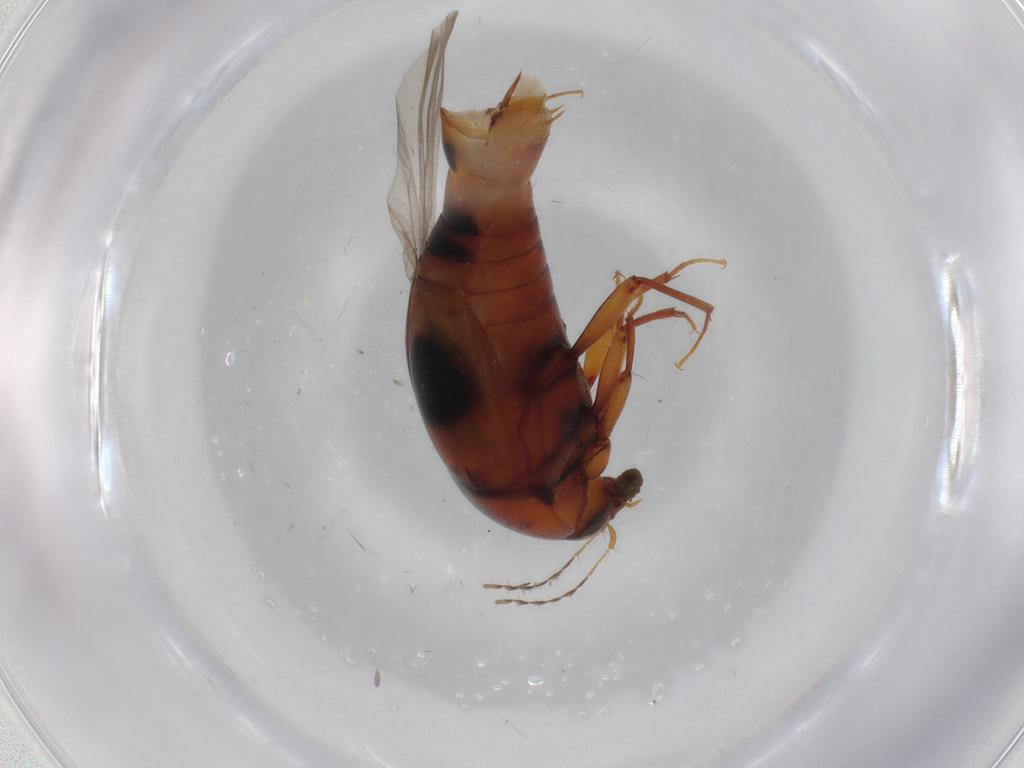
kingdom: Animalia
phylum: Arthropoda
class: Insecta
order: Coleoptera
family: Staphylinidae
